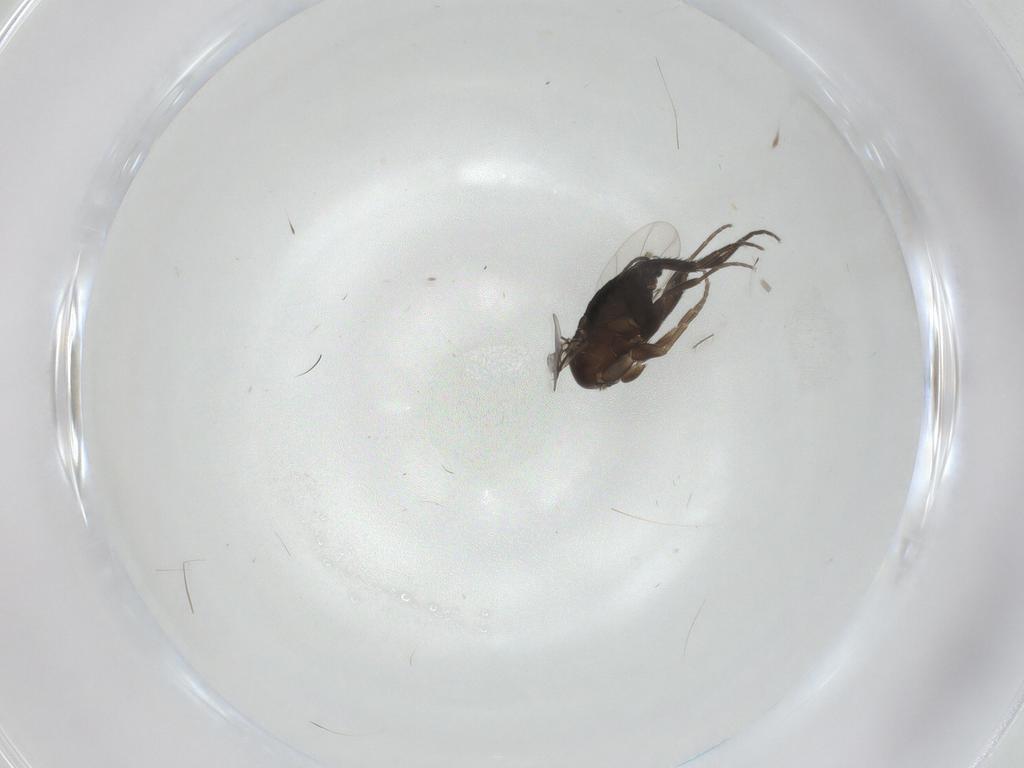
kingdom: Animalia
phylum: Arthropoda
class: Insecta
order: Diptera
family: Phoridae
